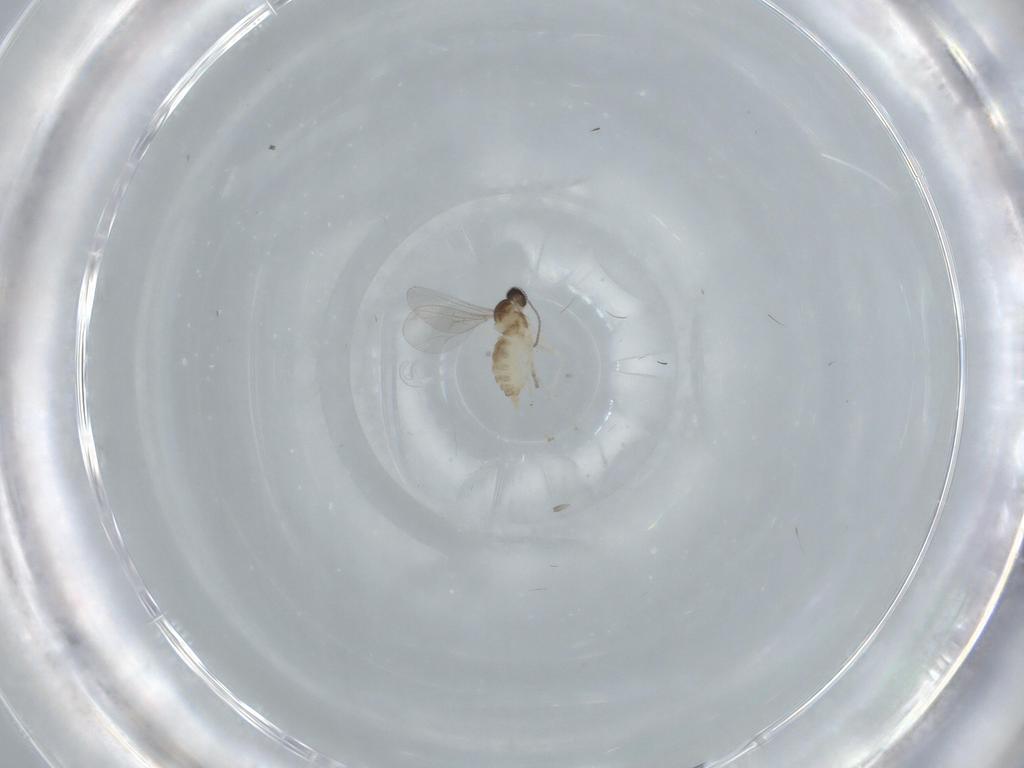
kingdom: Animalia
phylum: Arthropoda
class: Insecta
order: Diptera
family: Cecidomyiidae
